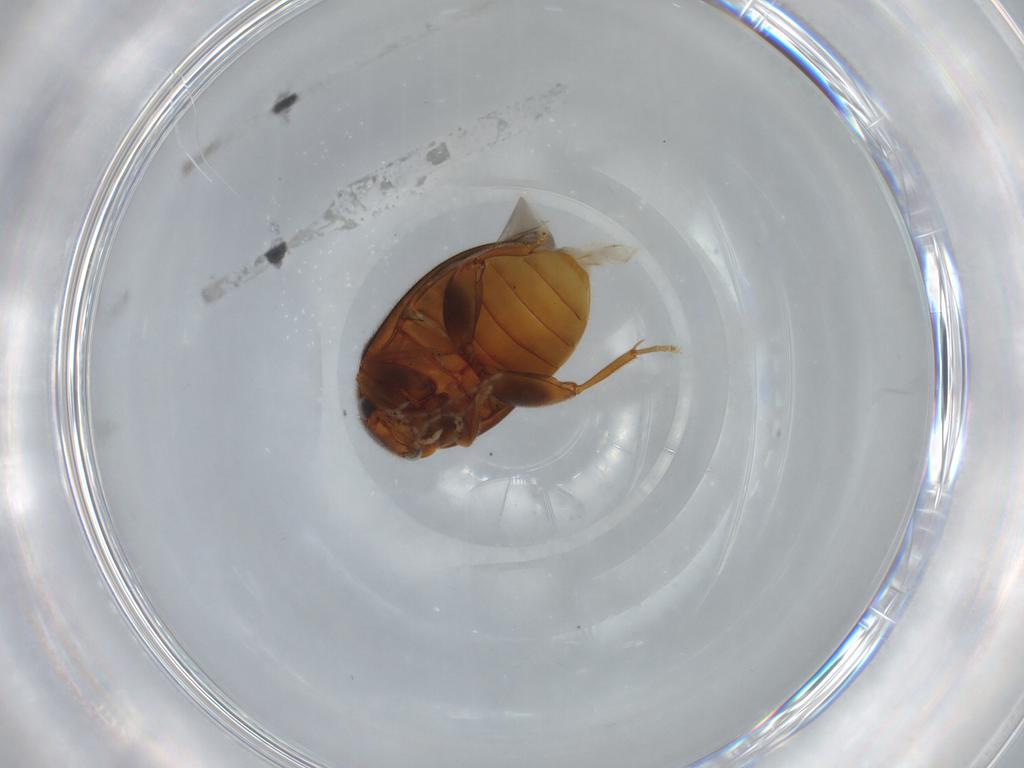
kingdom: Animalia
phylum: Arthropoda
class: Insecta
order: Coleoptera
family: Scirtidae
